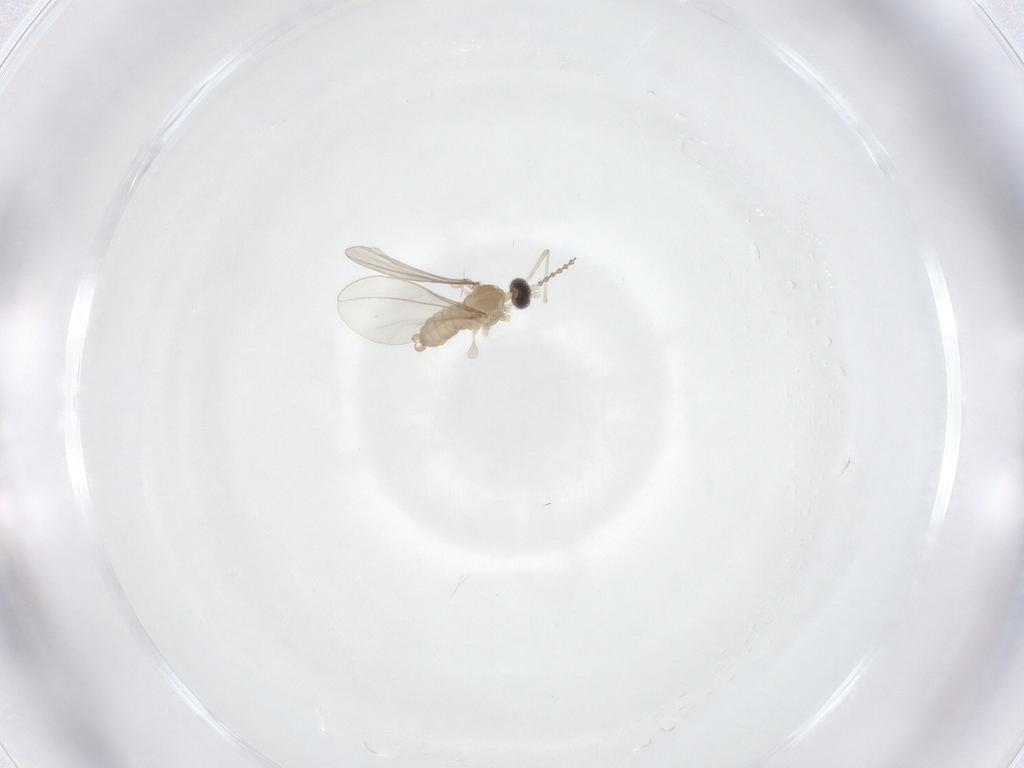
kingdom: Animalia
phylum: Arthropoda
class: Insecta
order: Diptera
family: Cecidomyiidae
